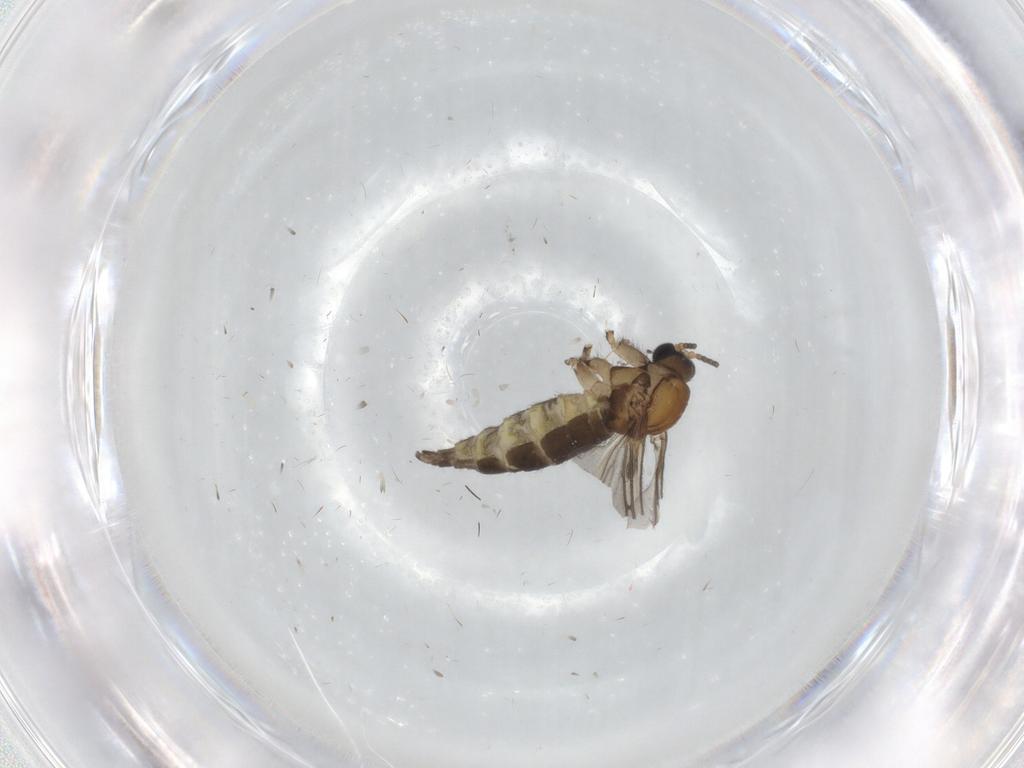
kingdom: Animalia
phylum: Arthropoda
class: Insecta
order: Diptera
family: Sciaridae
